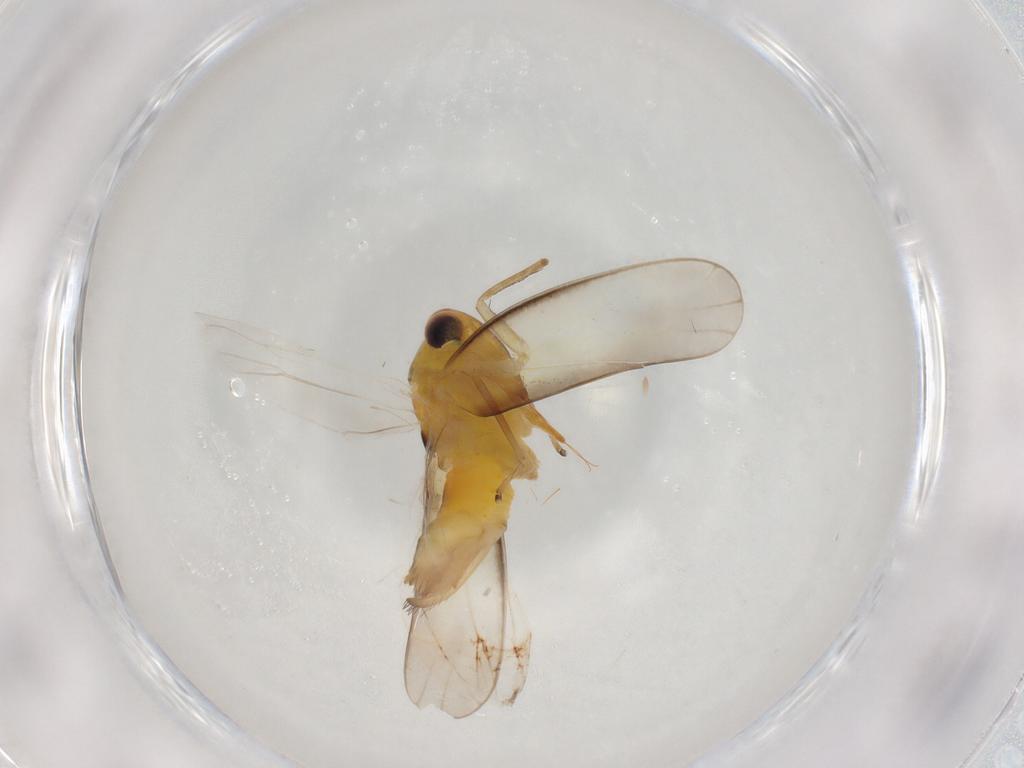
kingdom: Animalia
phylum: Arthropoda
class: Insecta
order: Hemiptera
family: Cicadellidae
